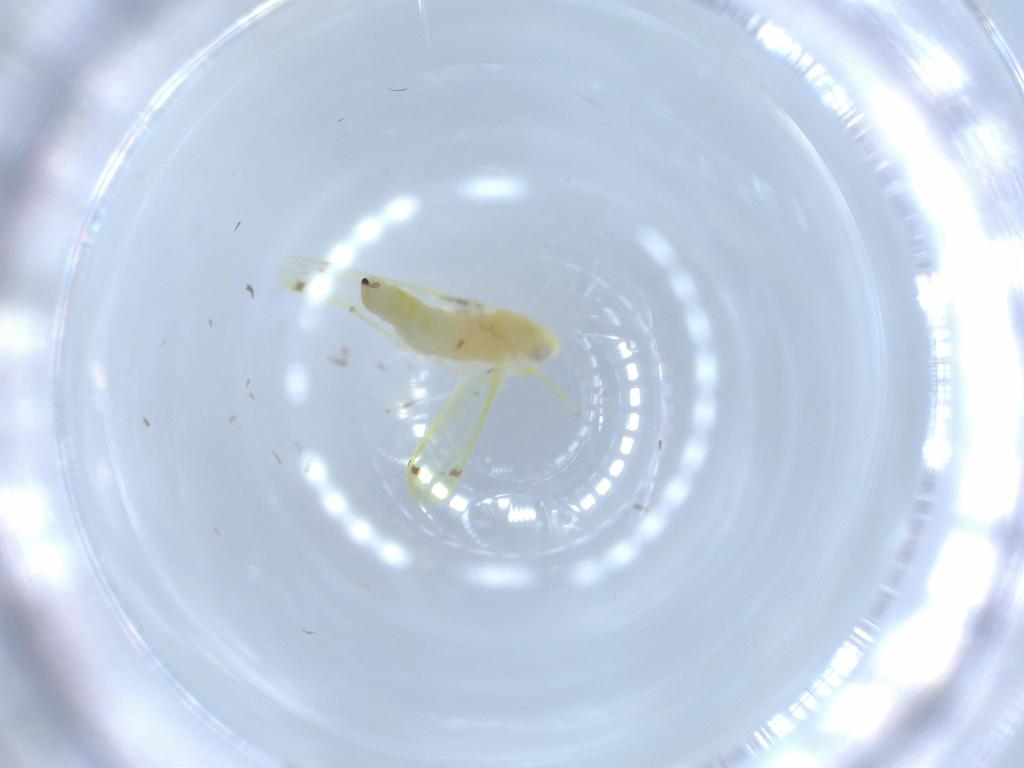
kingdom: Animalia
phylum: Arthropoda
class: Insecta
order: Hemiptera
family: Cicadellidae
